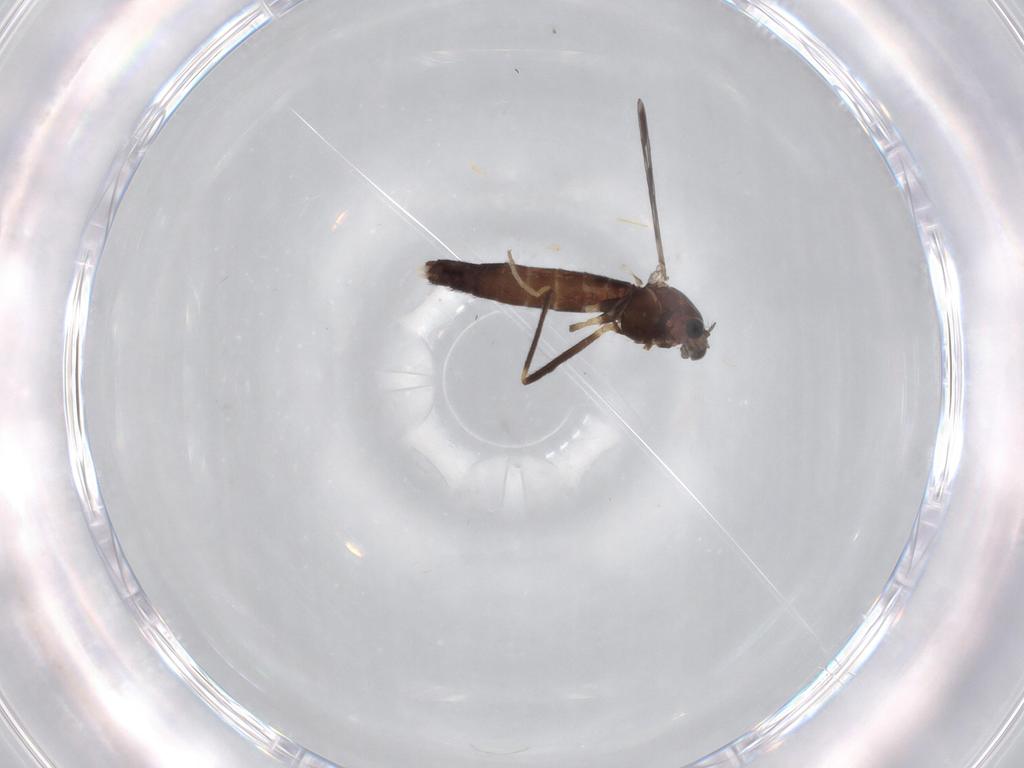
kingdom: Animalia
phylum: Arthropoda
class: Insecta
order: Diptera
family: Chironomidae
